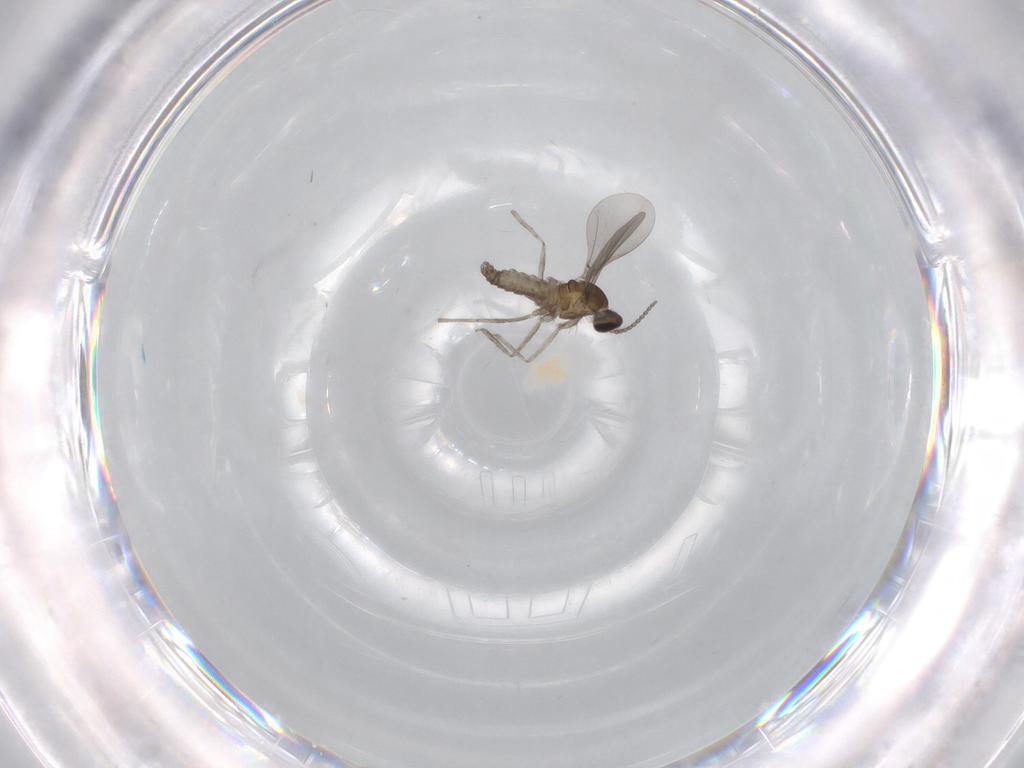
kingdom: Animalia
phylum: Arthropoda
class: Insecta
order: Diptera
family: Cecidomyiidae
